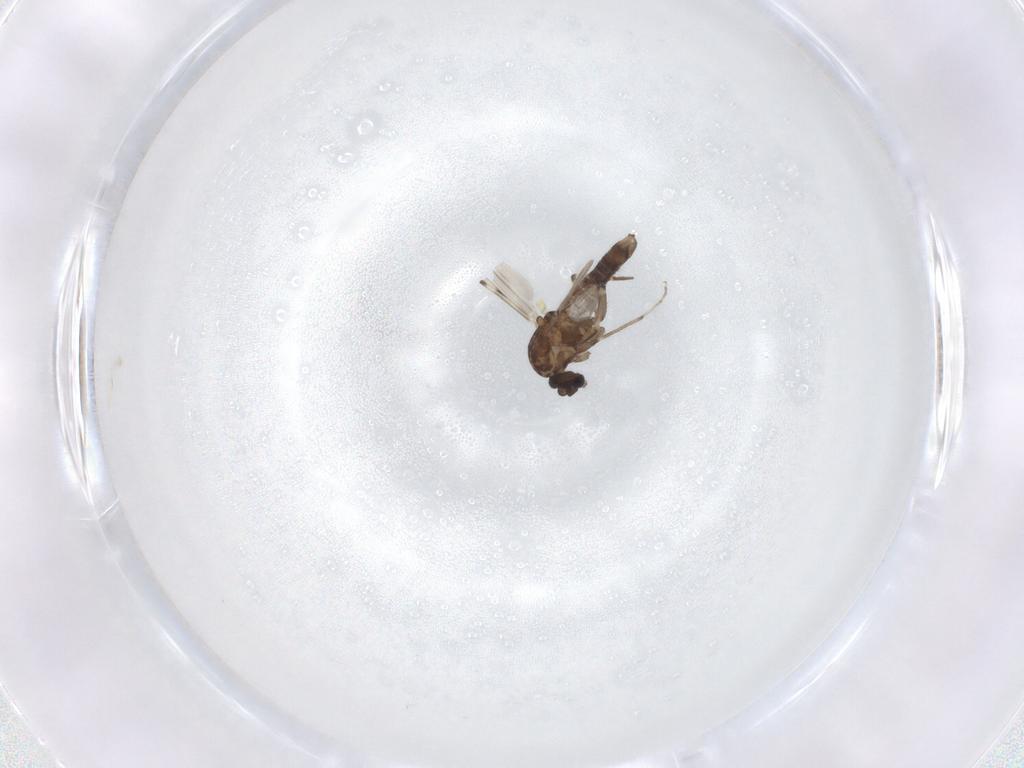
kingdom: Animalia
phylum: Arthropoda
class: Insecta
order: Diptera
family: Ceratopogonidae
